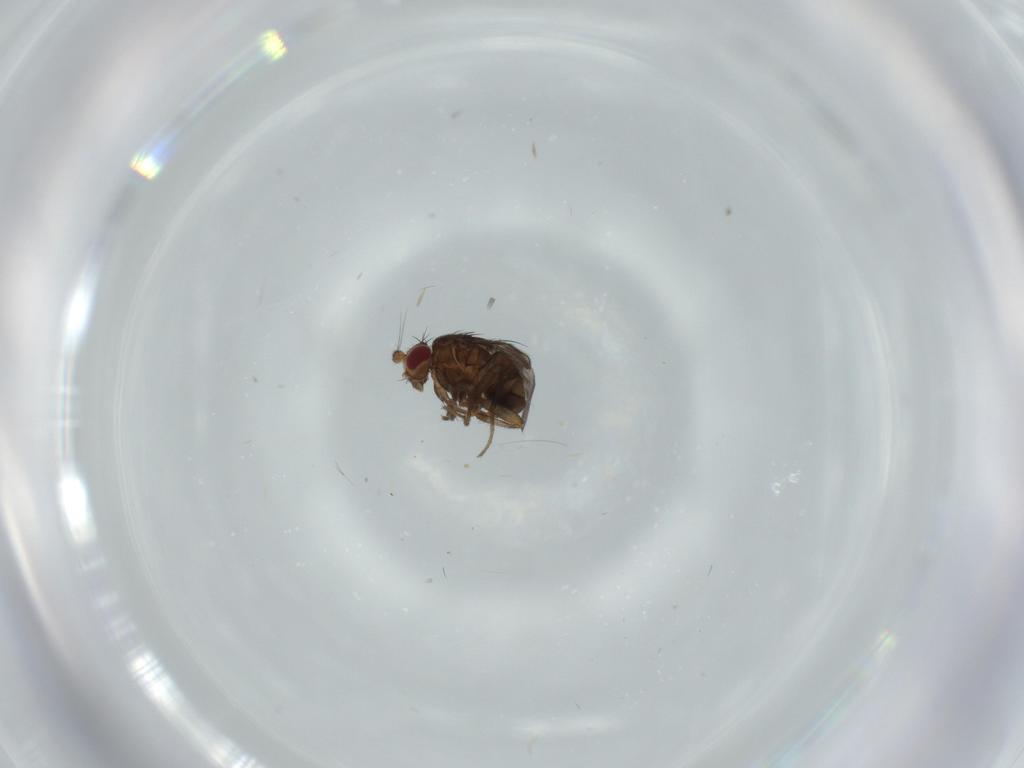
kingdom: Animalia
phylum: Arthropoda
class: Insecta
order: Diptera
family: Sphaeroceridae
